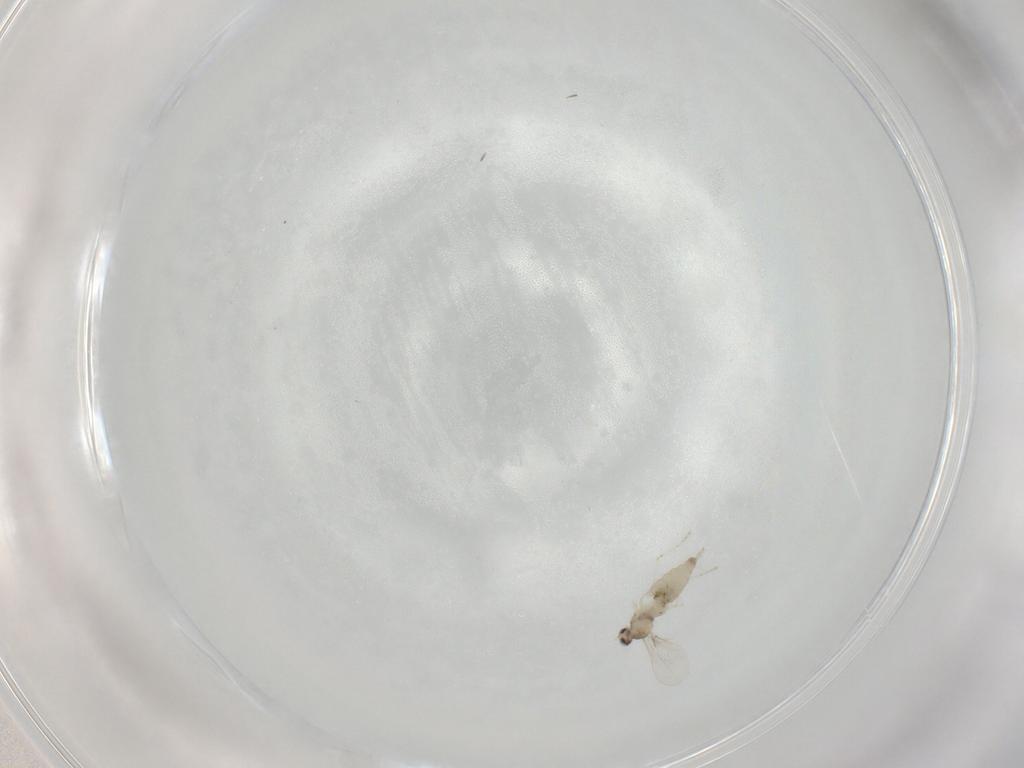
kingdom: Animalia
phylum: Arthropoda
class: Insecta
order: Diptera
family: Cecidomyiidae
